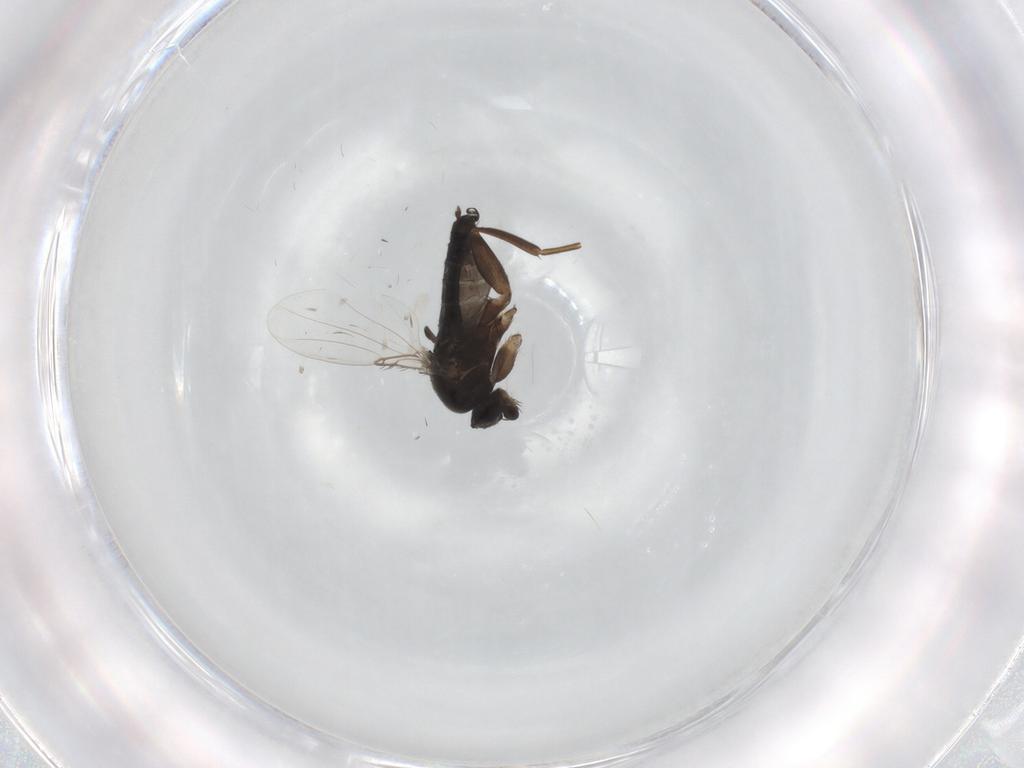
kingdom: Animalia
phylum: Arthropoda
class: Insecta
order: Diptera
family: Phoridae
